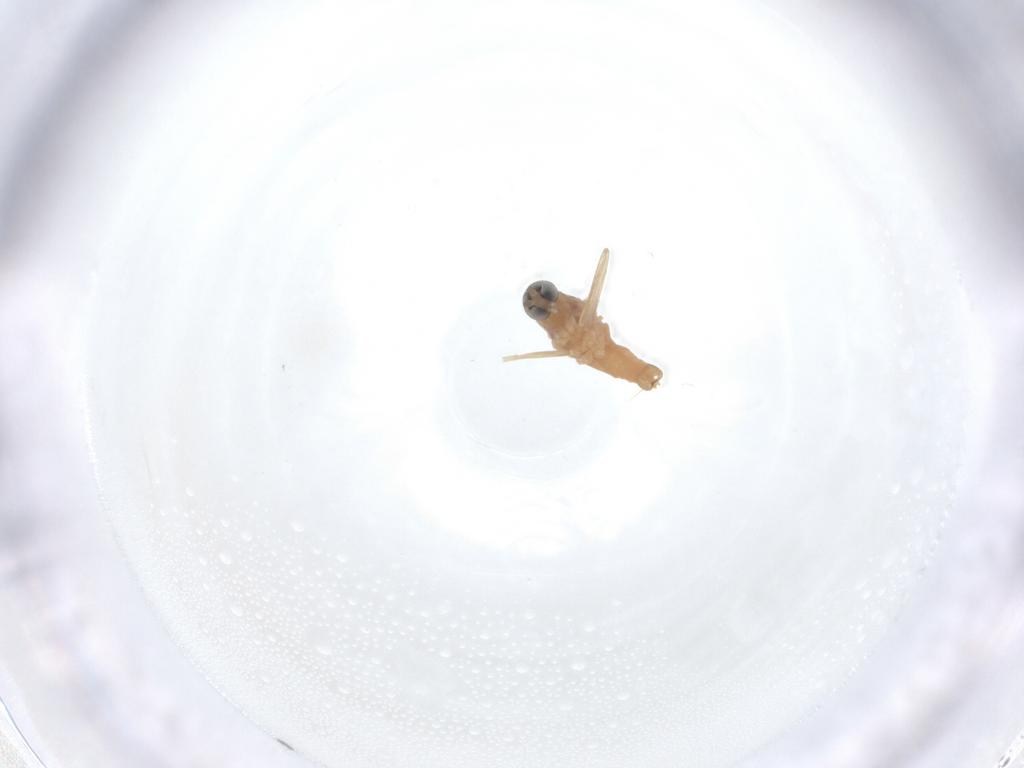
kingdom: Animalia
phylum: Arthropoda
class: Insecta
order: Diptera
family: Cecidomyiidae
